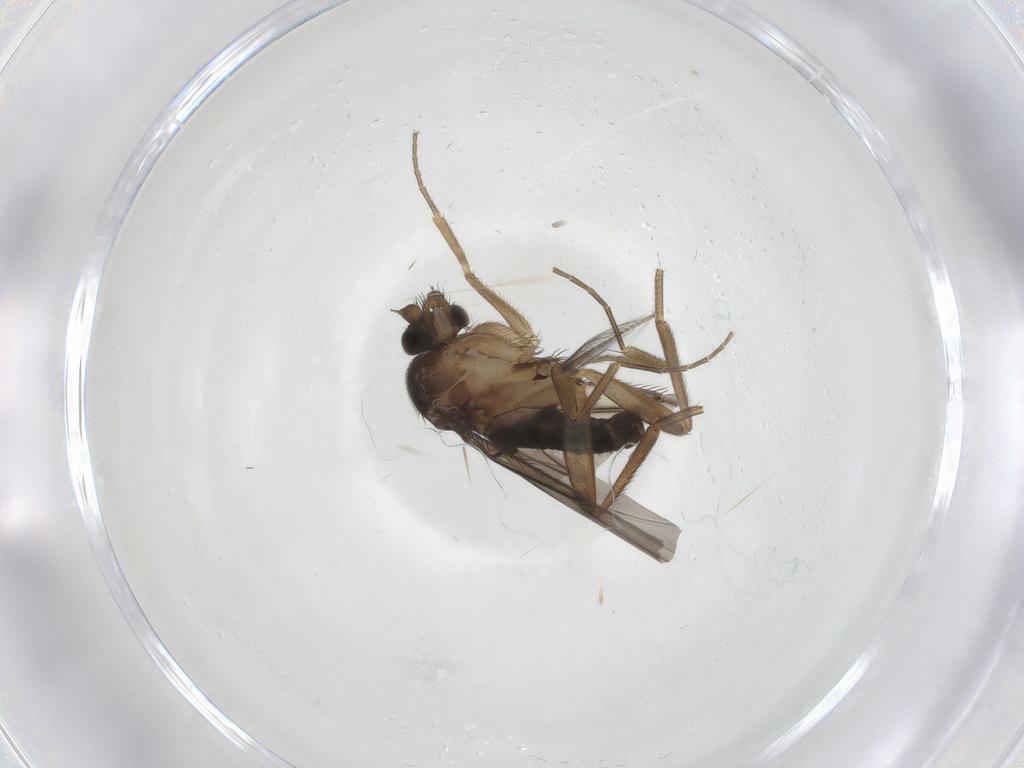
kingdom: Animalia
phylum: Arthropoda
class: Insecta
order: Diptera
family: Phoridae
